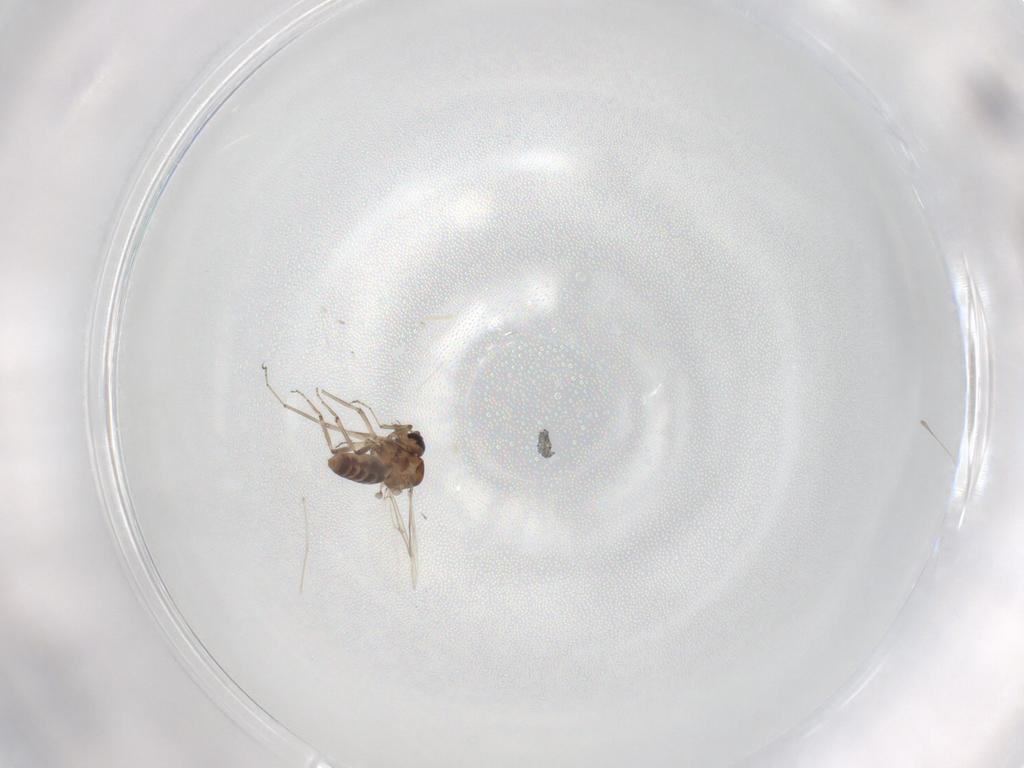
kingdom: Animalia
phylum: Arthropoda
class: Insecta
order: Diptera
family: Ceratopogonidae
